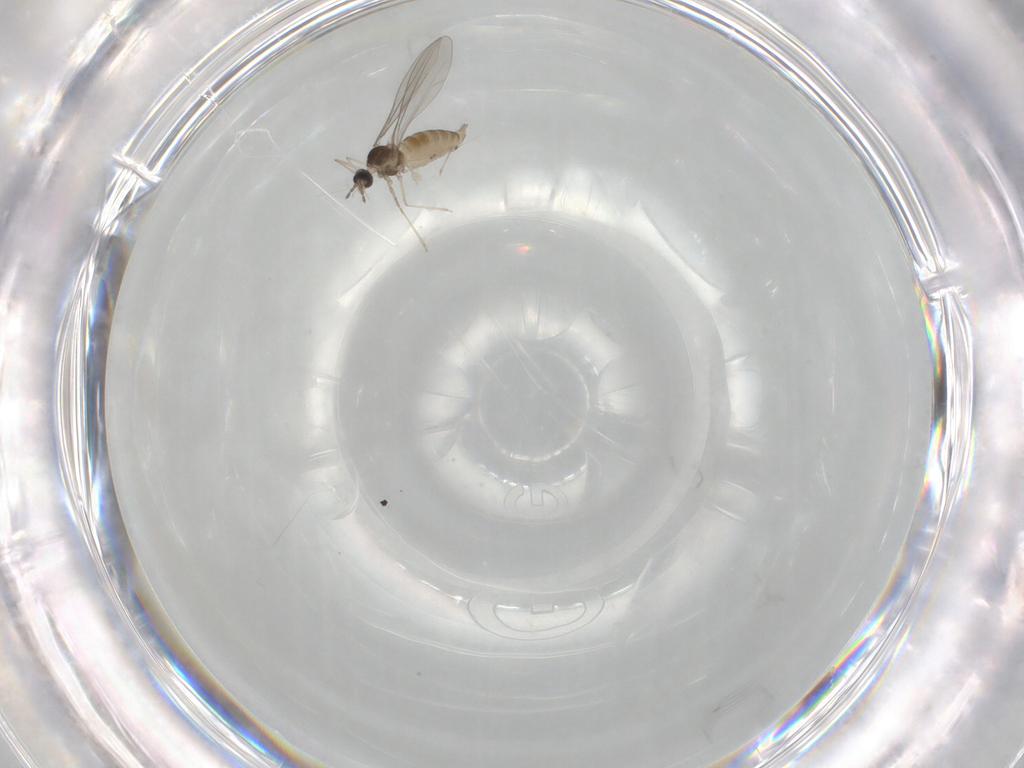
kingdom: Animalia
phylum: Arthropoda
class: Insecta
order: Diptera
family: Cecidomyiidae
